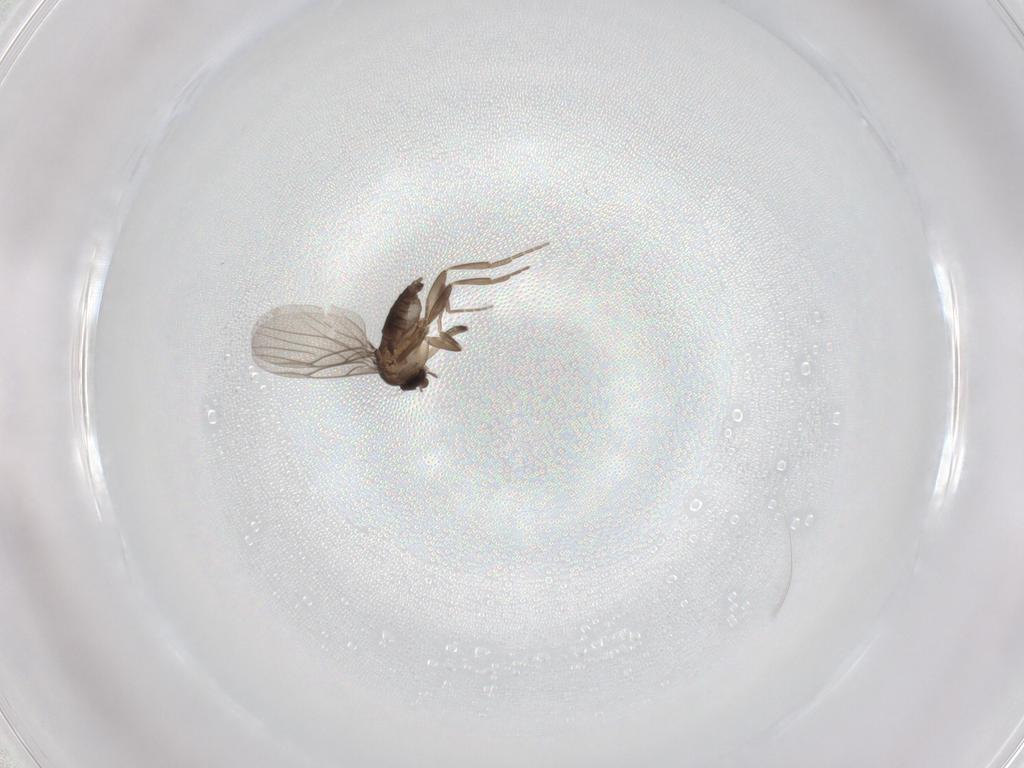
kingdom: Animalia
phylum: Arthropoda
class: Insecta
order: Diptera
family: Phoridae
